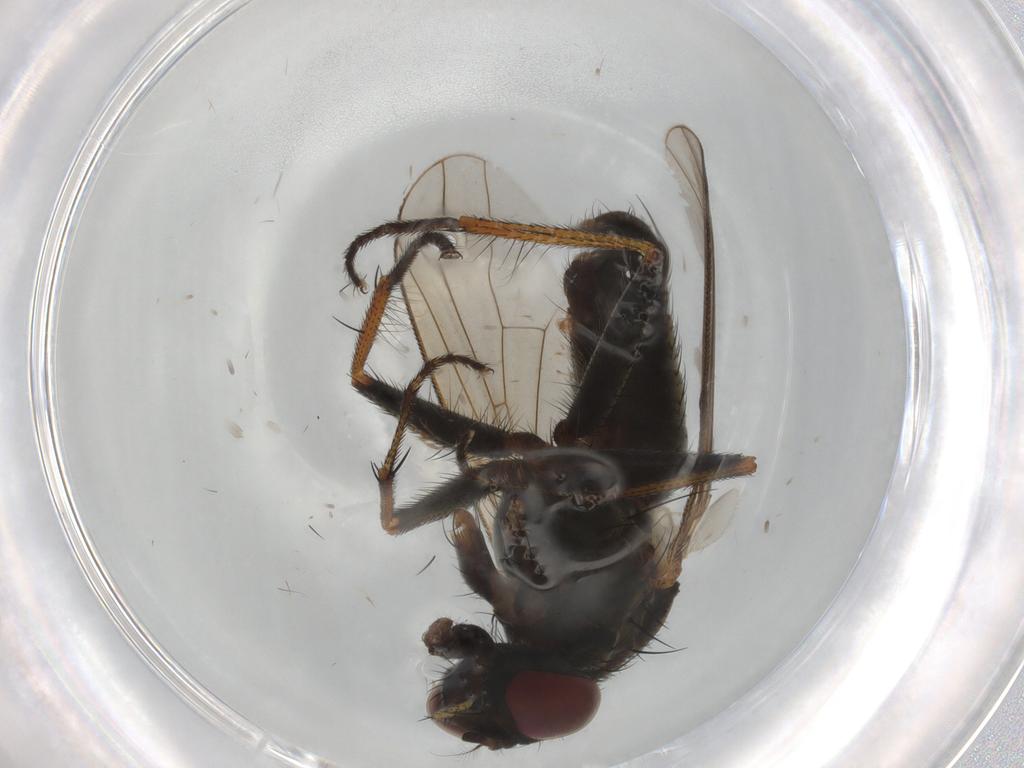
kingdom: Animalia
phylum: Arthropoda
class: Insecta
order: Diptera
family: Muscidae
